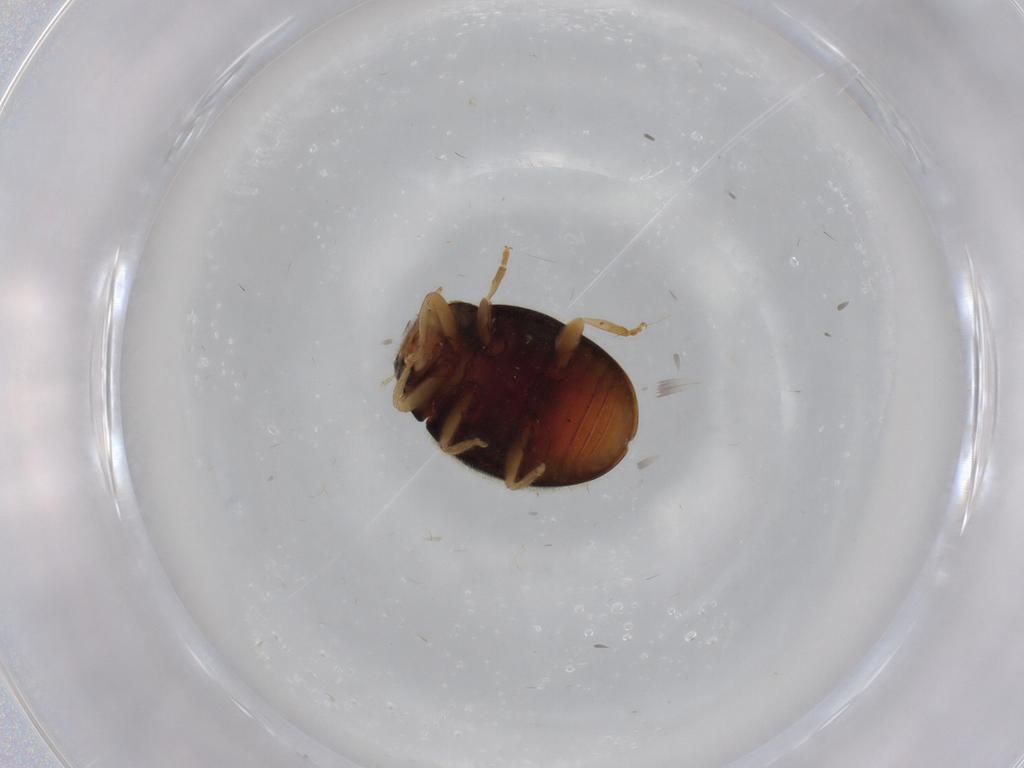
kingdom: Animalia
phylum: Arthropoda
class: Insecta
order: Coleoptera
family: Coccinellidae
